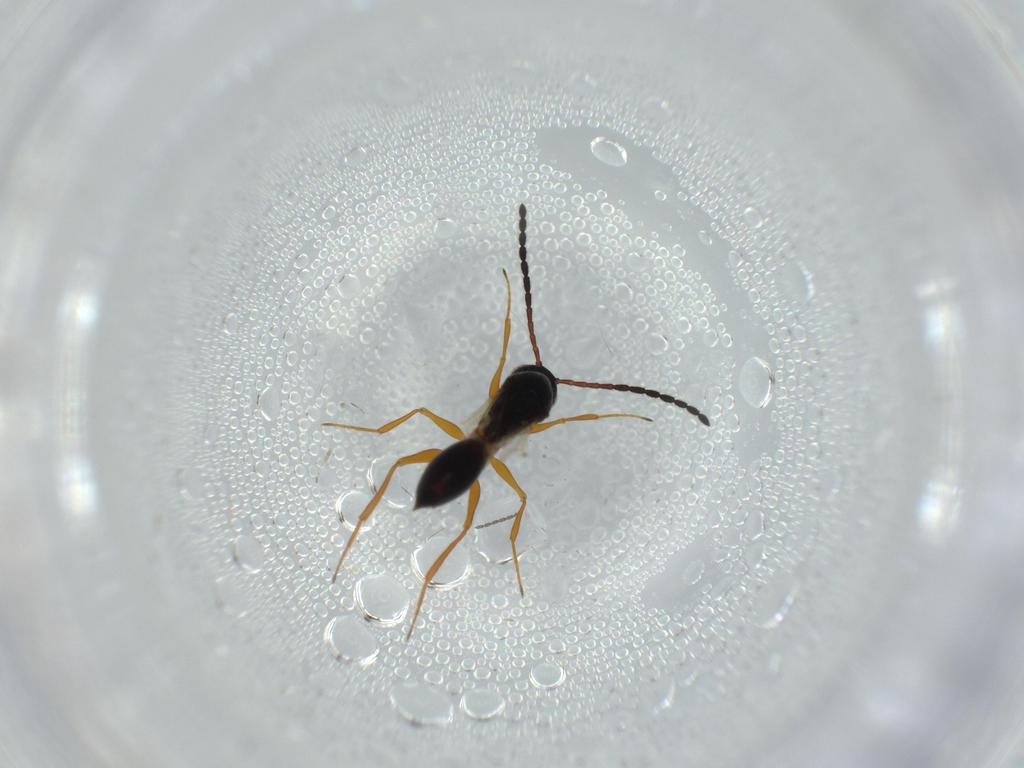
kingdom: Animalia
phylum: Arthropoda
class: Insecta
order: Hymenoptera
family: Figitidae
